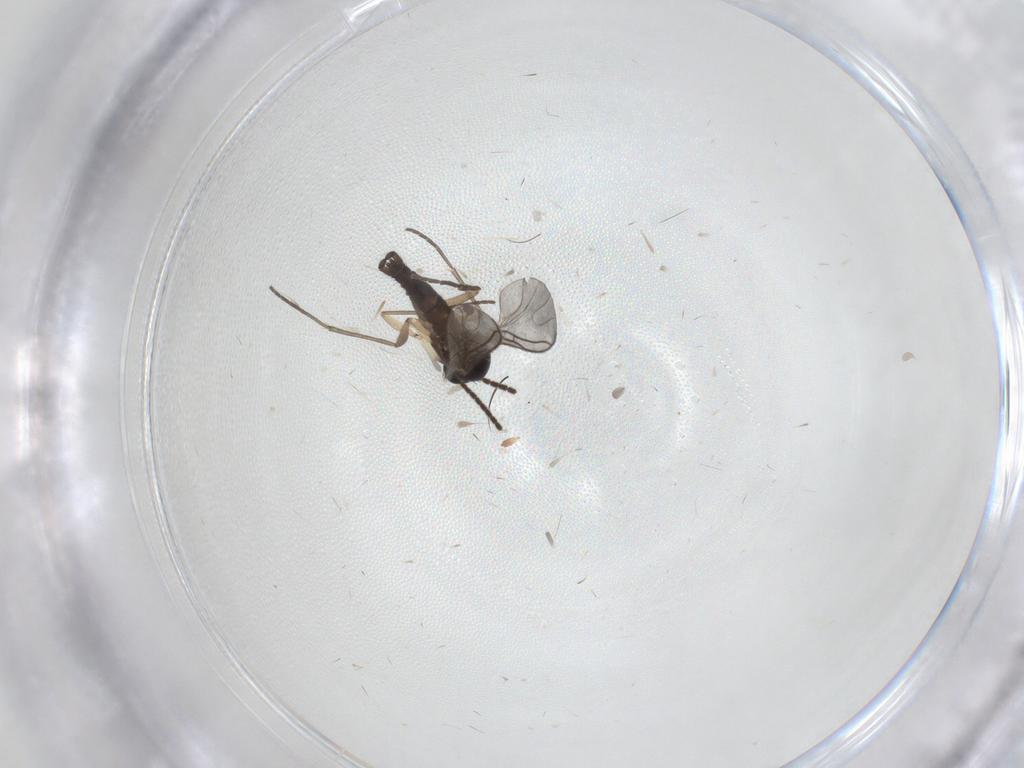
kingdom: Animalia
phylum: Arthropoda
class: Insecta
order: Diptera
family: Sciaridae
